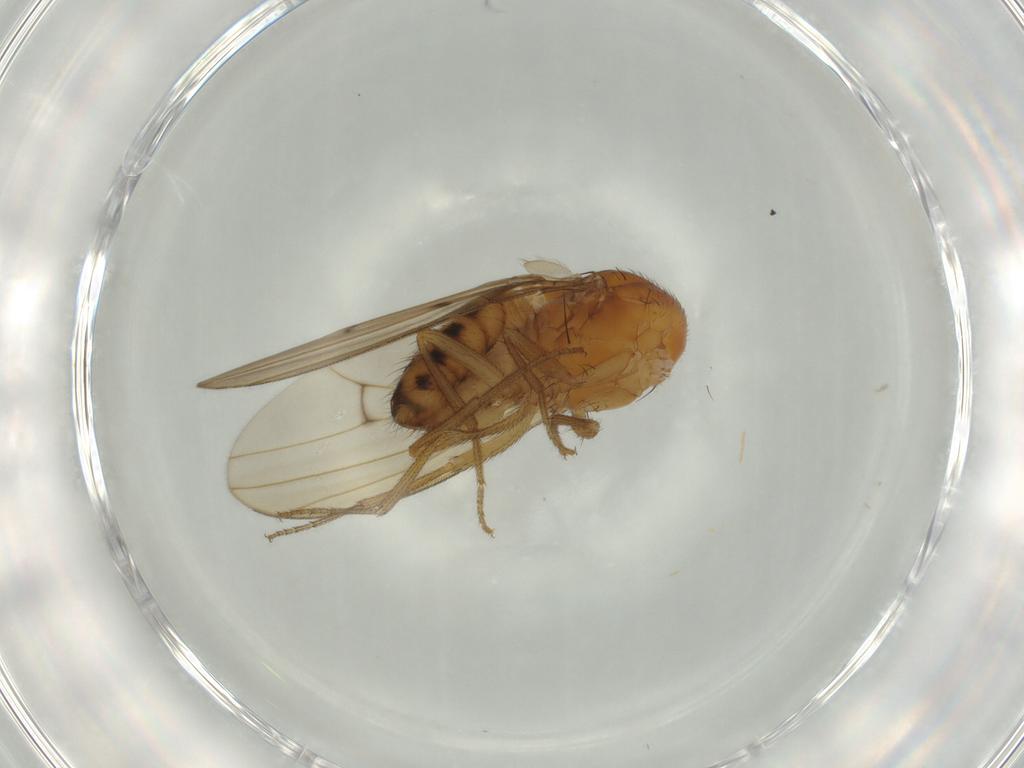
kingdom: Animalia
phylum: Arthropoda
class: Insecta
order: Diptera
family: Drosophilidae
